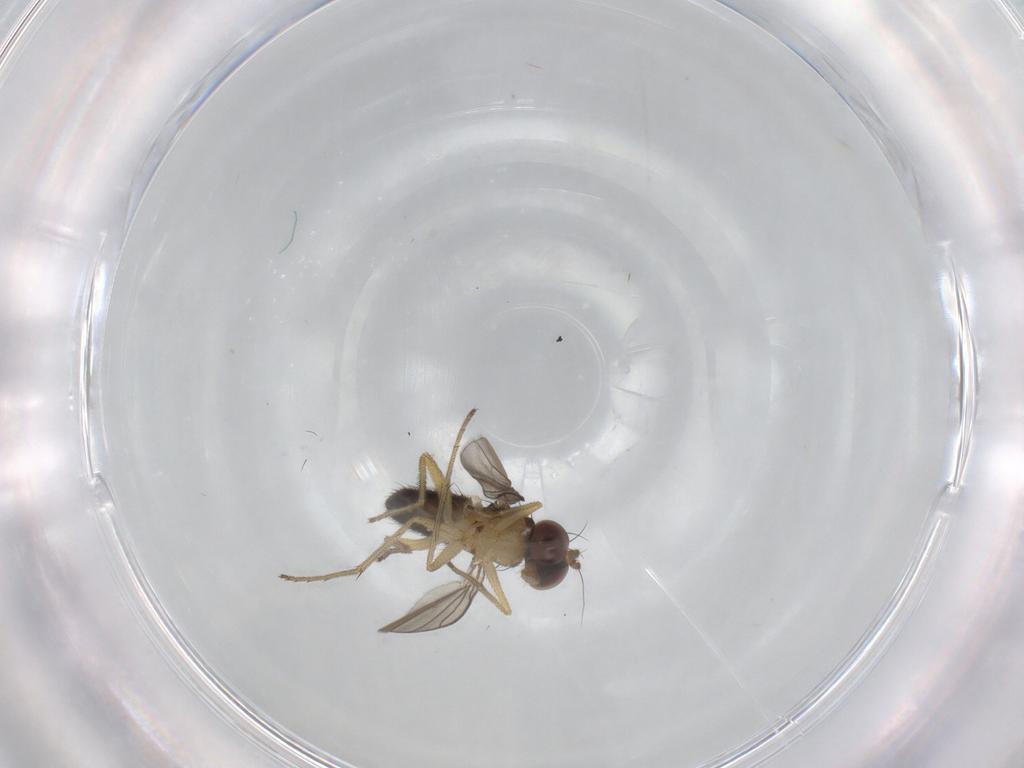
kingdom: Animalia
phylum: Arthropoda
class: Insecta
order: Diptera
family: Dolichopodidae
